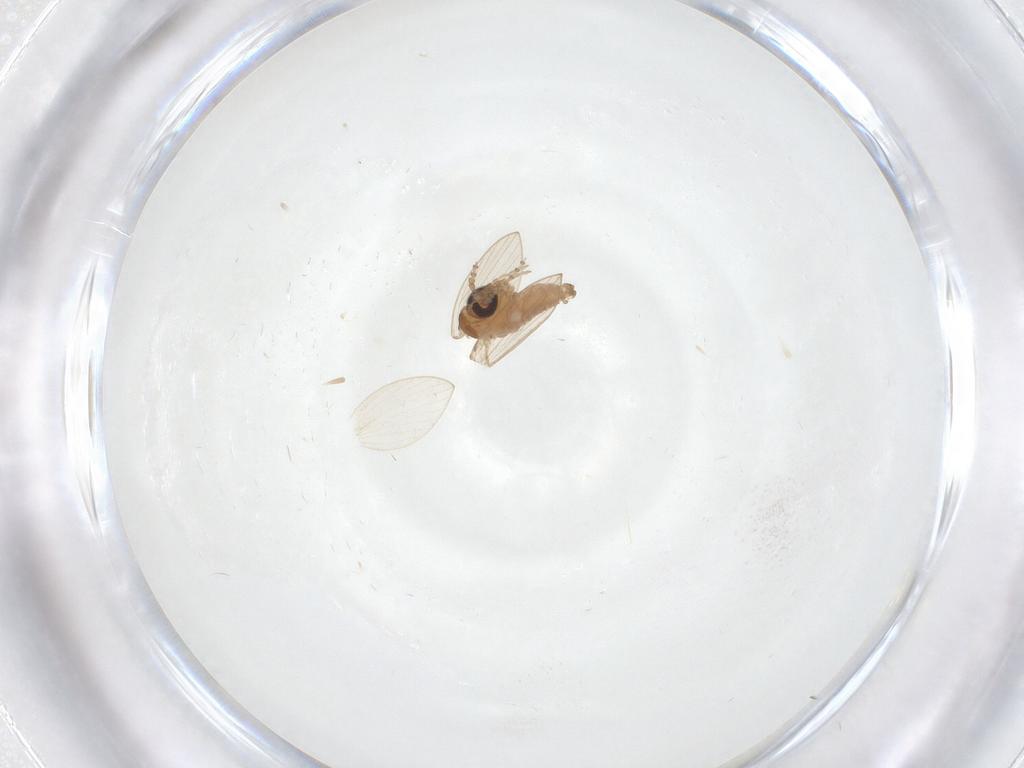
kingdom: Animalia
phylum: Arthropoda
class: Insecta
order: Diptera
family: Psychodidae
